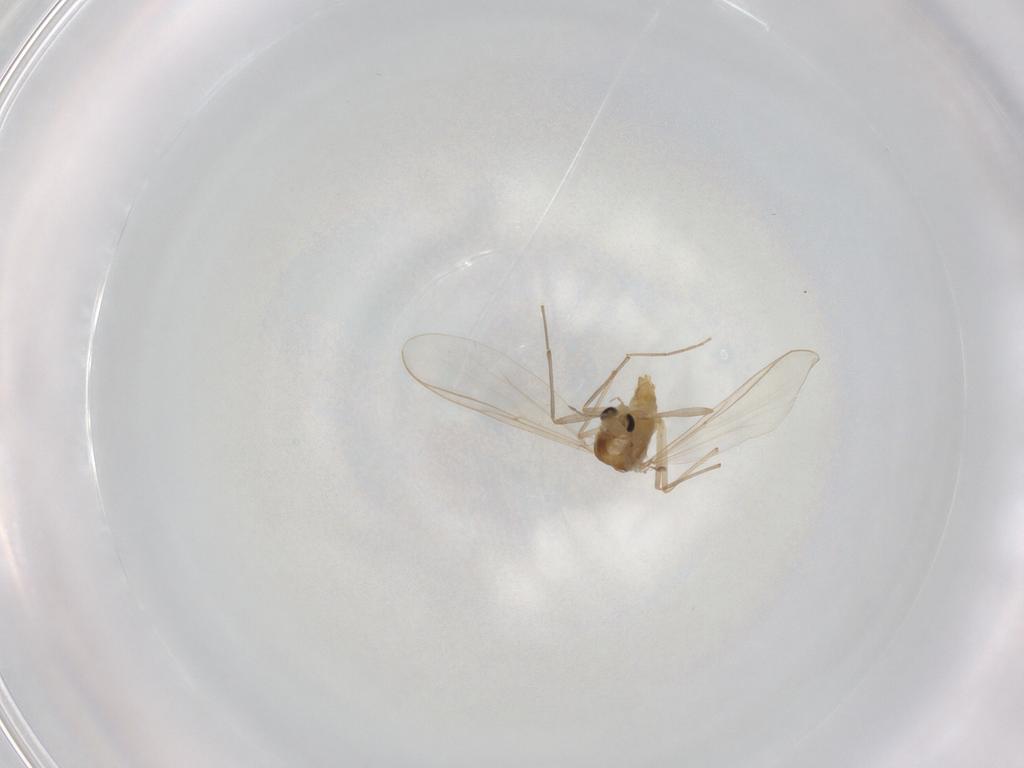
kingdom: Animalia
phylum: Arthropoda
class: Insecta
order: Diptera
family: Chironomidae
